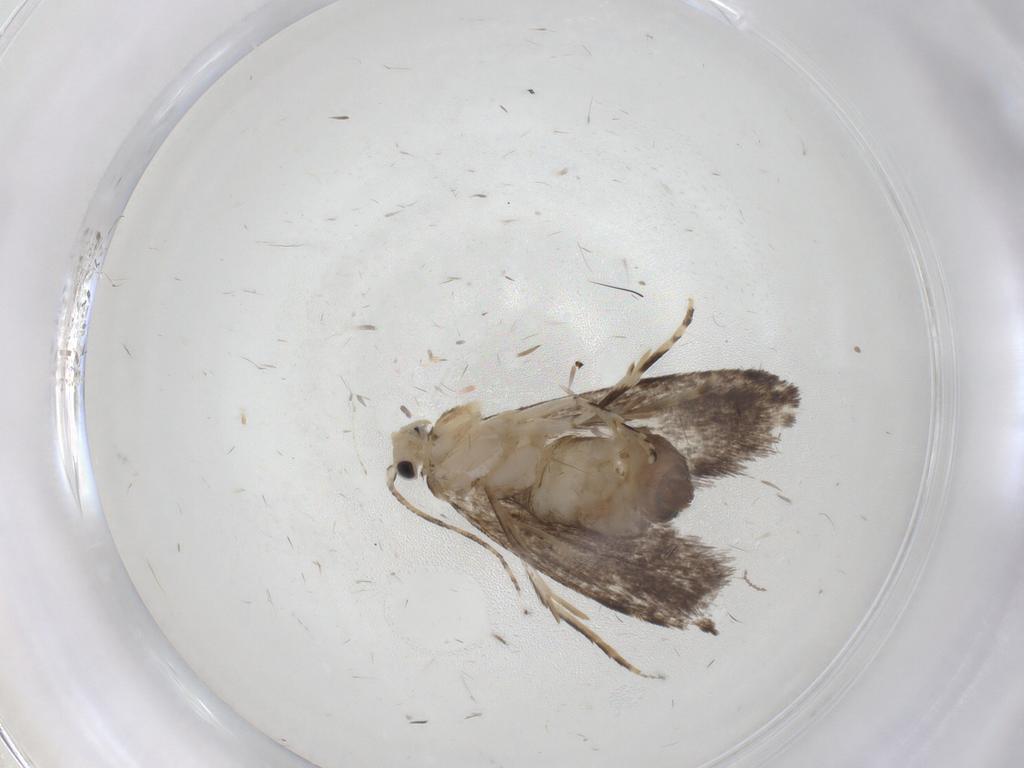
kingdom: Animalia
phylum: Arthropoda
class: Insecta
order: Lepidoptera
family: Tineidae
